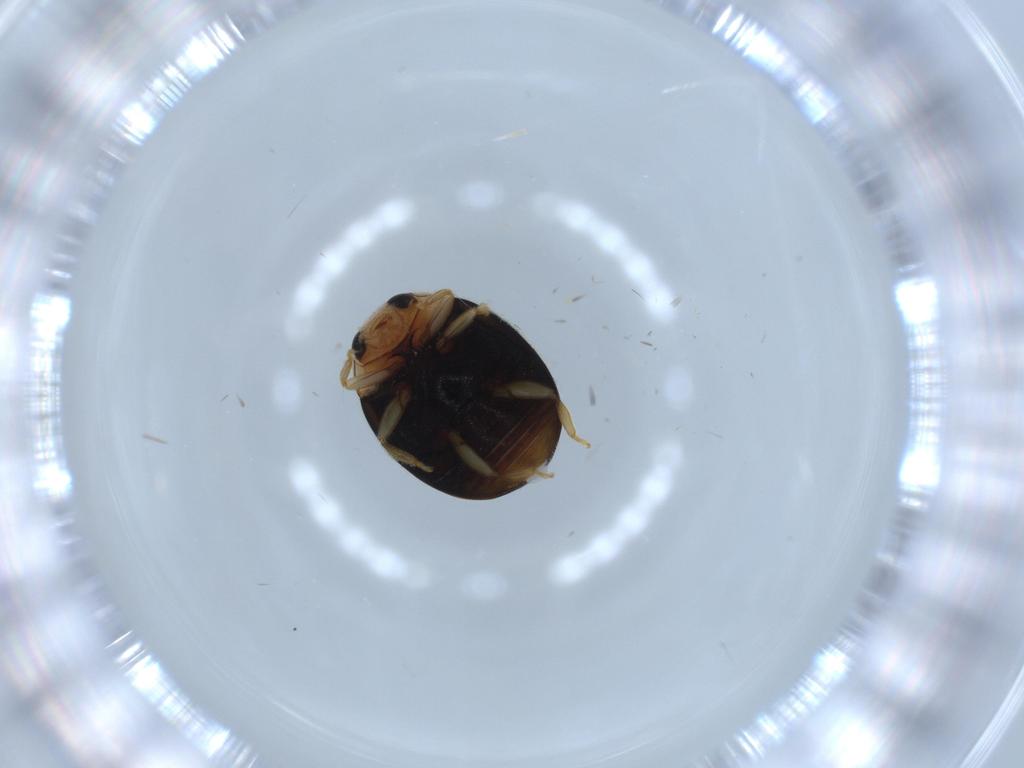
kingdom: Animalia
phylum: Arthropoda
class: Insecta
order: Coleoptera
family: Coccinellidae
